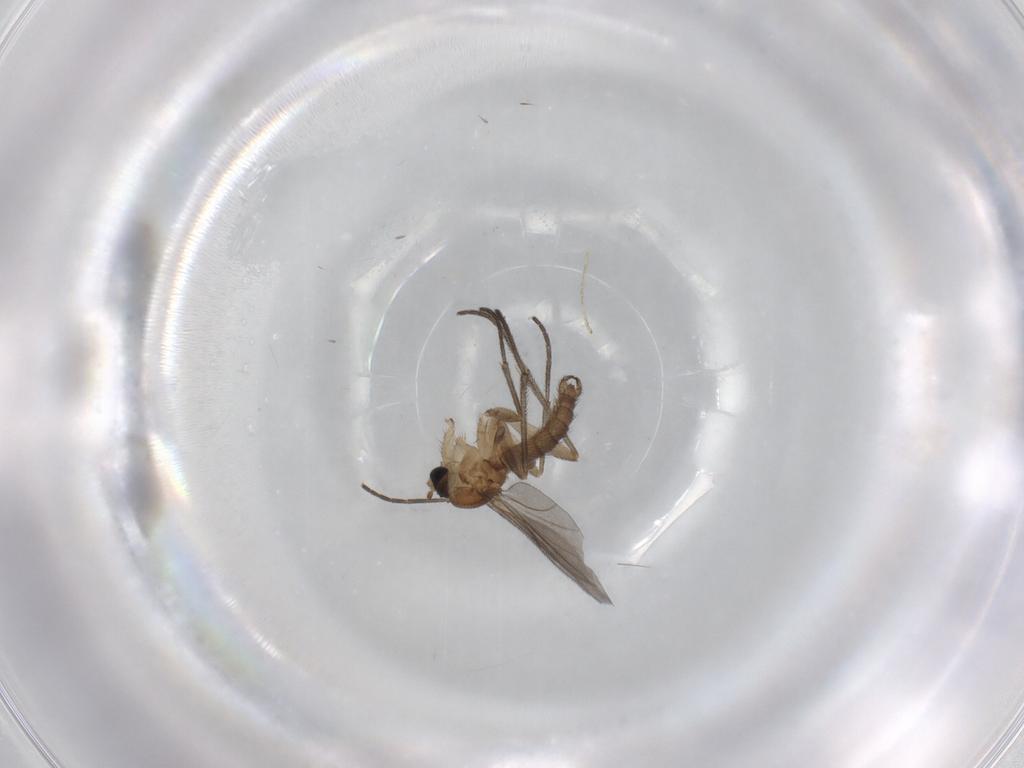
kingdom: Animalia
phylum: Arthropoda
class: Insecta
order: Diptera
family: Sciaridae
